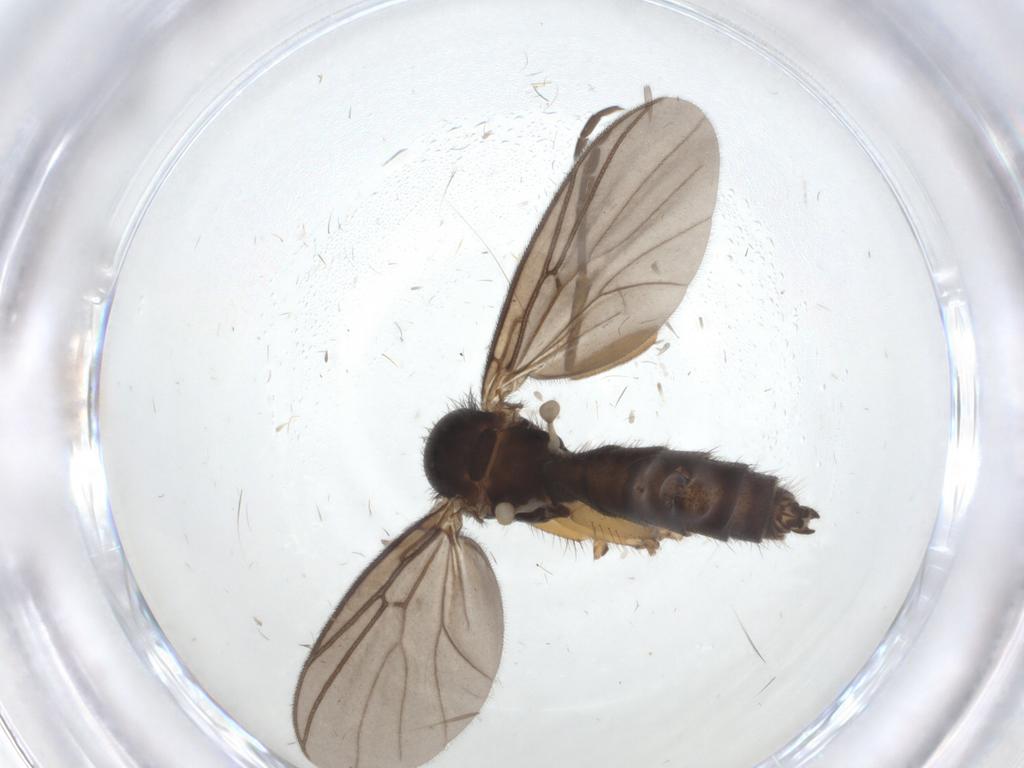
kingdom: Animalia
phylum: Arthropoda
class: Insecta
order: Diptera
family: Mycetophilidae
